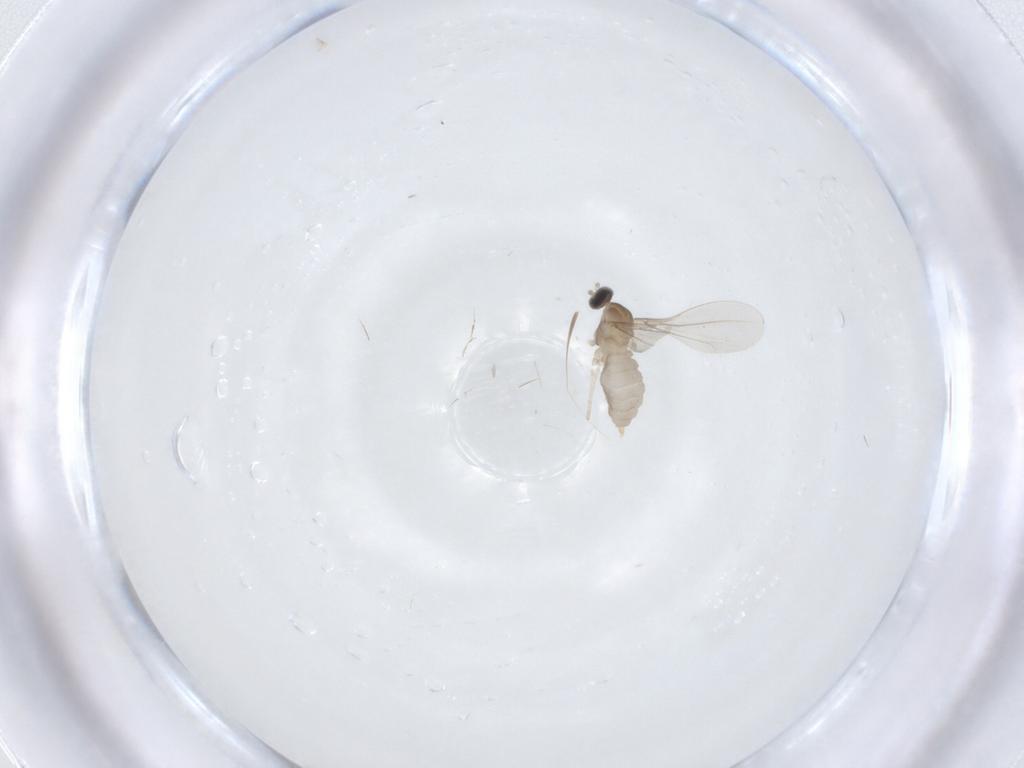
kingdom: Animalia
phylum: Arthropoda
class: Insecta
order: Diptera
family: Cecidomyiidae
